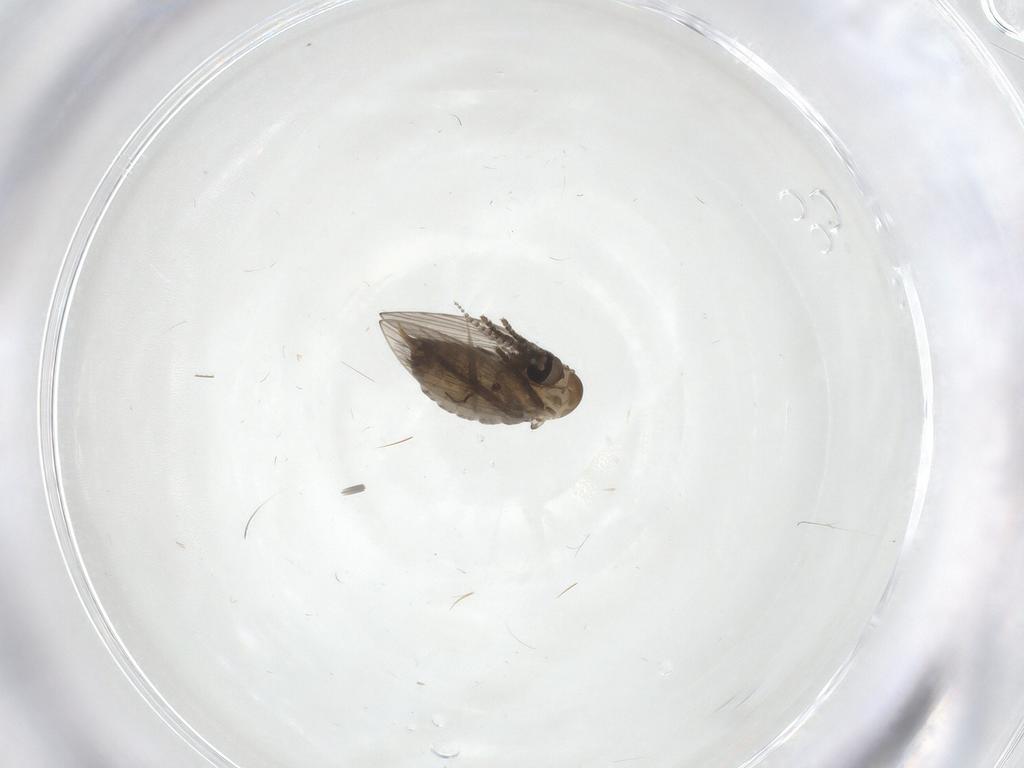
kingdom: Animalia
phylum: Arthropoda
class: Insecta
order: Diptera
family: Psychodidae
